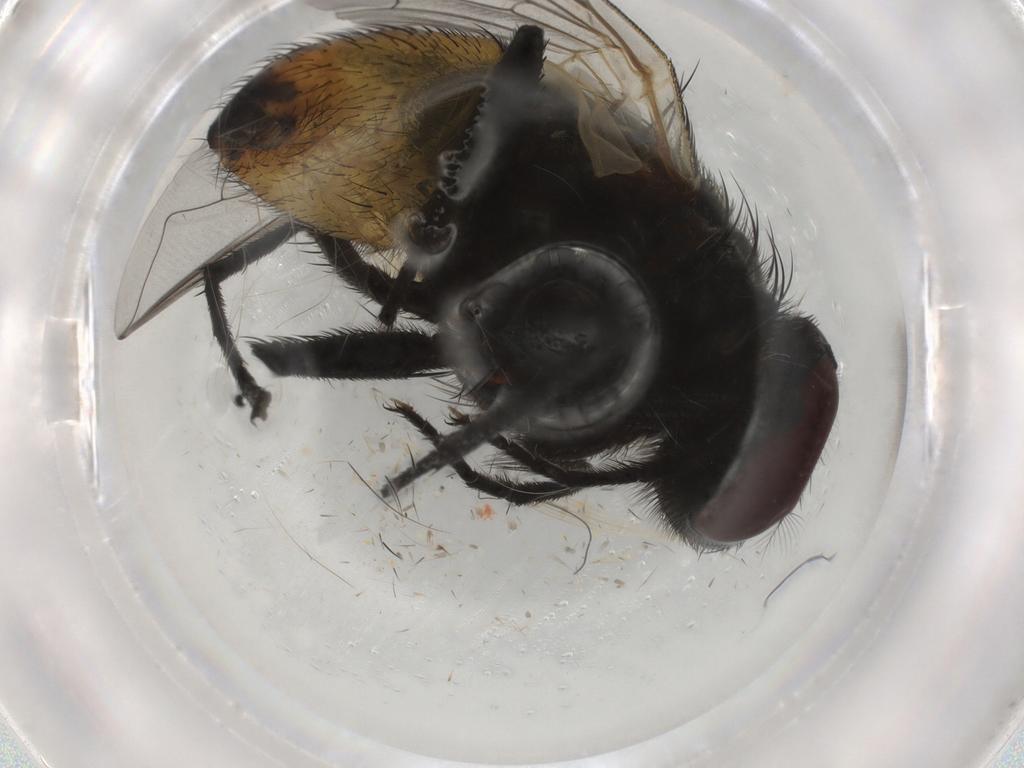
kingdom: Animalia
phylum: Arthropoda
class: Insecta
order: Diptera
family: Muscidae
